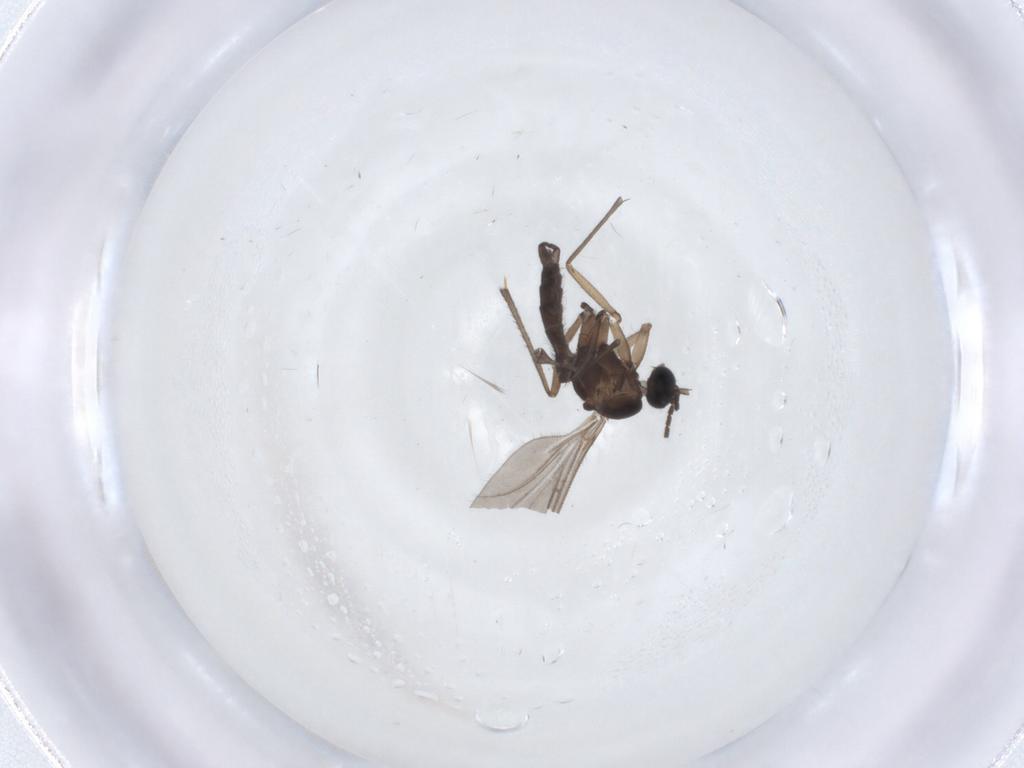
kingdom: Animalia
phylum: Arthropoda
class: Insecta
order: Diptera
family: Sciaridae
